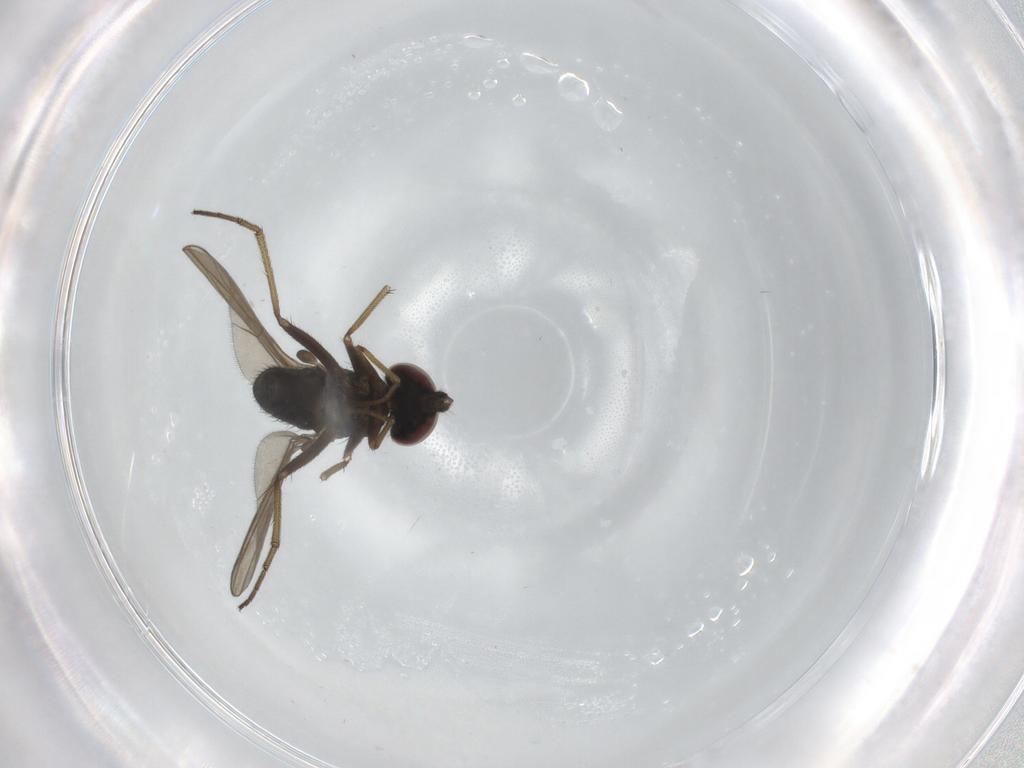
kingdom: Animalia
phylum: Arthropoda
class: Insecta
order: Diptera
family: Dolichopodidae
